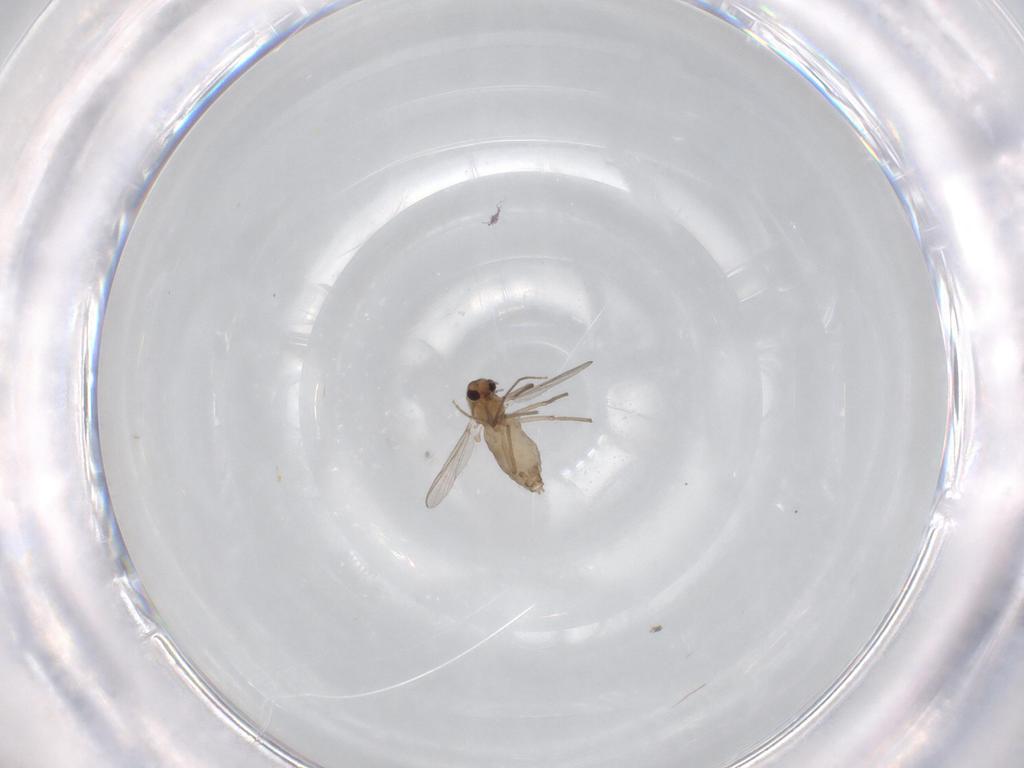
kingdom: Animalia
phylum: Arthropoda
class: Insecta
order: Diptera
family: Chironomidae
